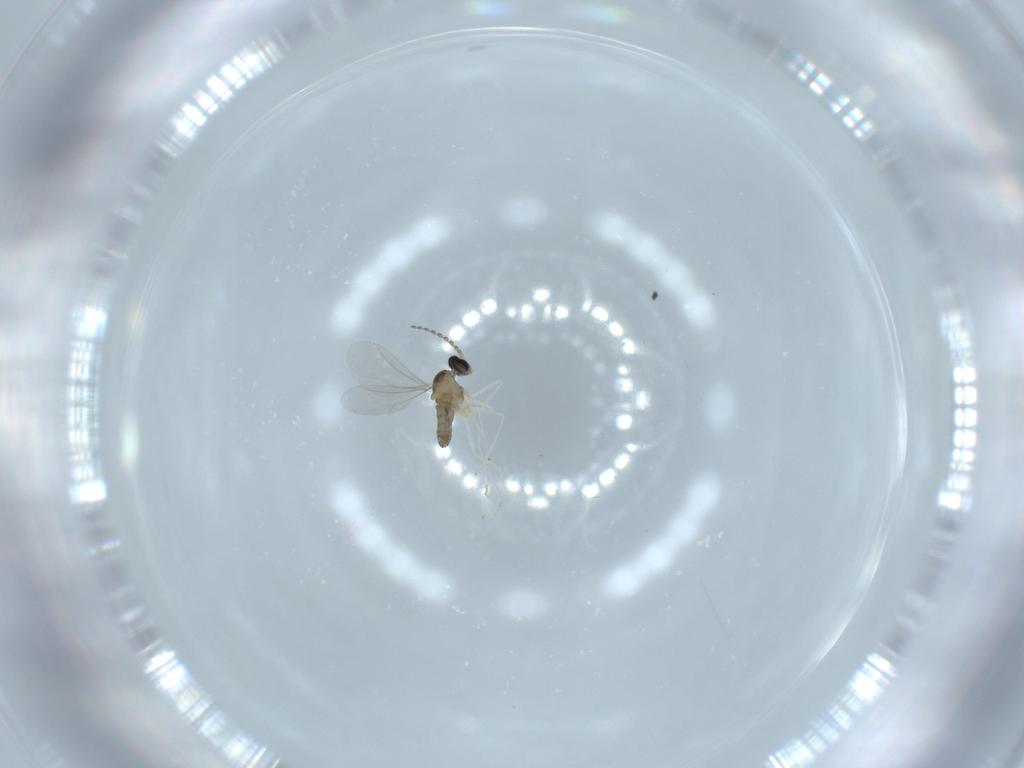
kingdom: Animalia
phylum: Arthropoda
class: Insecta
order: Diptera
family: Cecidomyiidae
